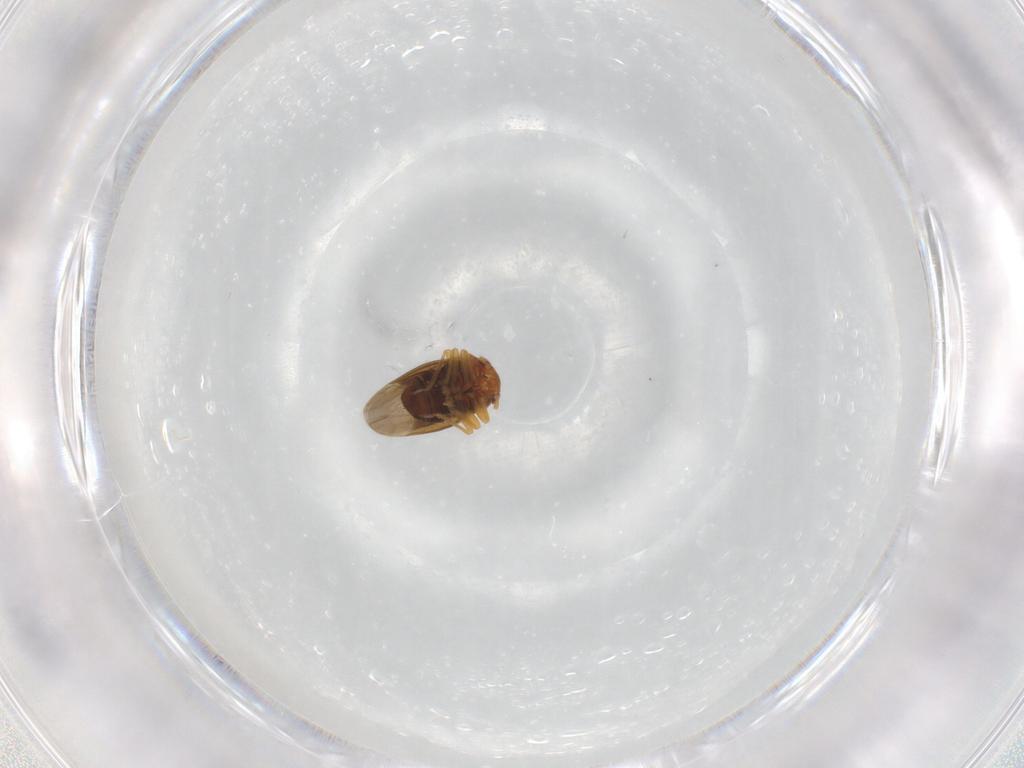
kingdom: Animalia
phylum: Arthropoda
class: Insecta
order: Hemiptera
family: Schizopteridae
